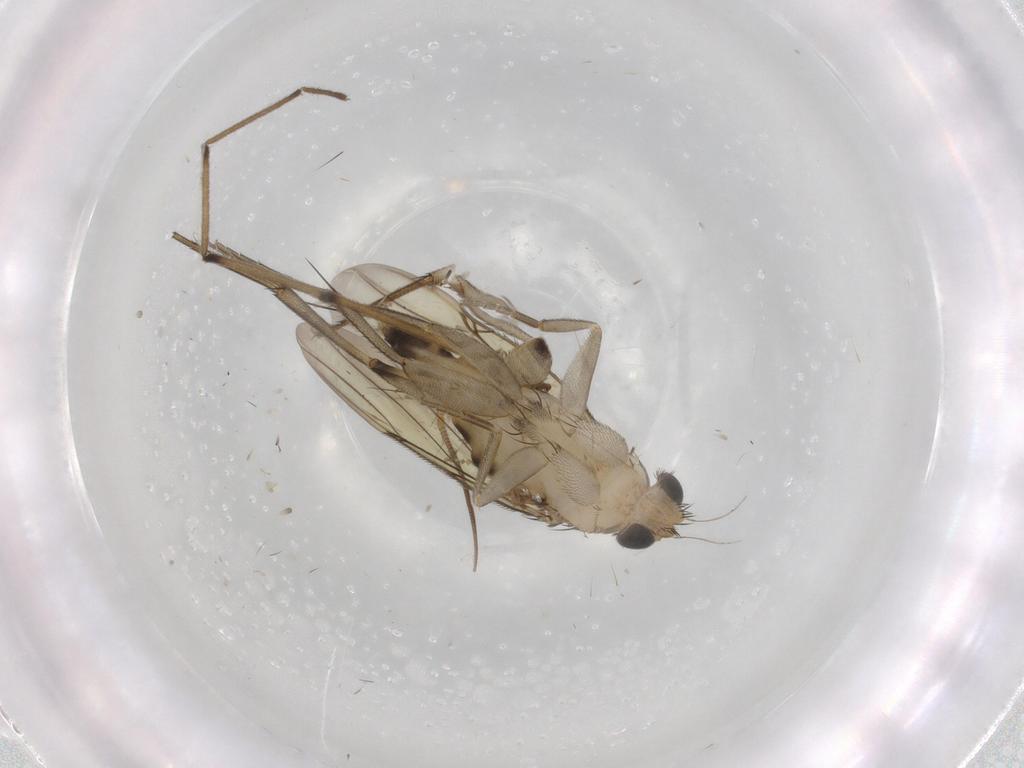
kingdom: Animalia
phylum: Arthropoda
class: Insecta
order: Diptera
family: Phoridae
